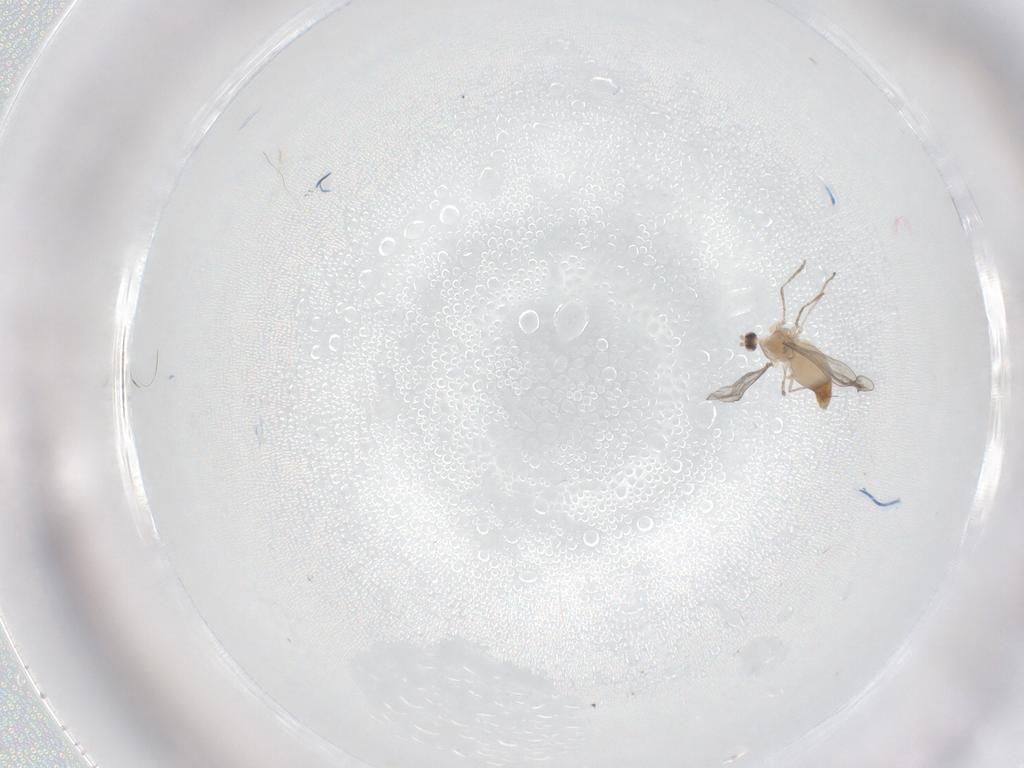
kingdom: Animalia
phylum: Arthropoda
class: Insecta
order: Diptera
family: Cecidomyiidae
